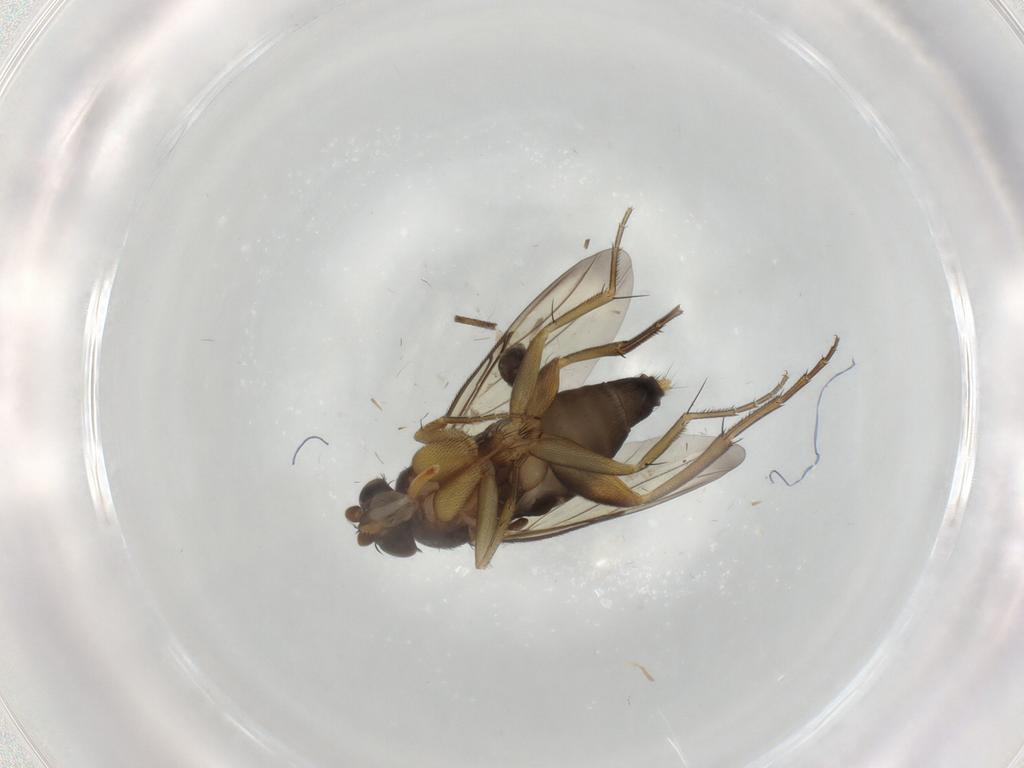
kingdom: Animalia
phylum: Arthropoda
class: Insecta
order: Diptera
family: Phoridae
